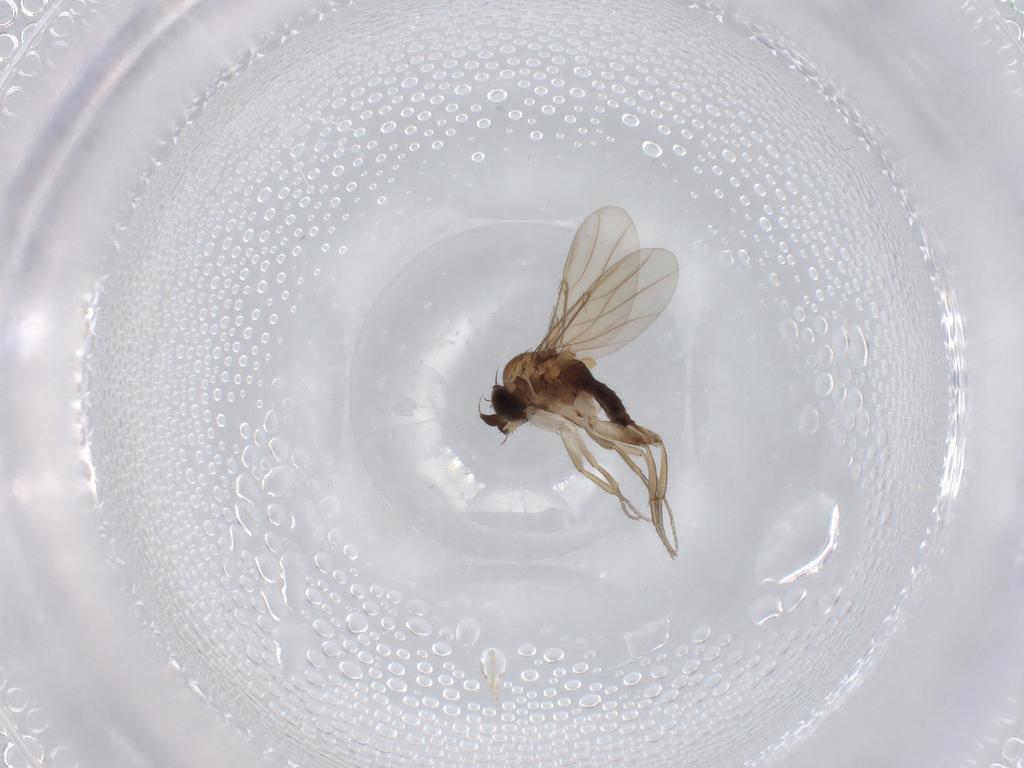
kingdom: Animalia
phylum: Arthropoda
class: Insecta
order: Diptera
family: Phoridae
